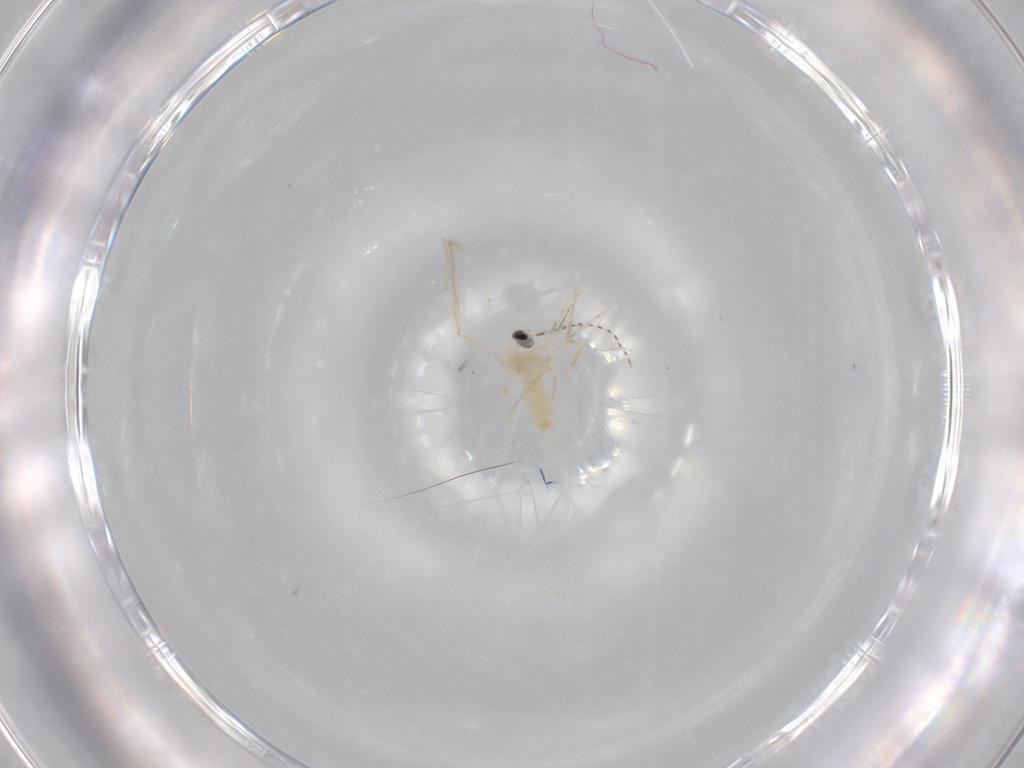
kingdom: Animalia
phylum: Arthropoda
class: Insecta
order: Diptera
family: Cecidomyiidae
